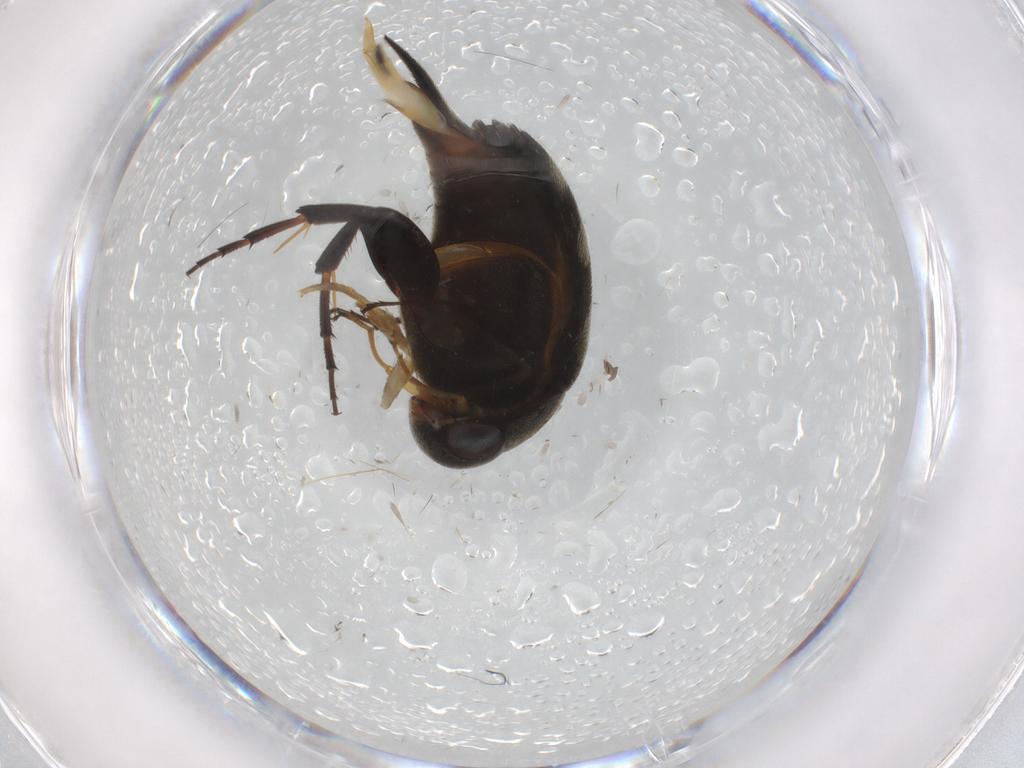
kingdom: Animalia
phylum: Arthropoda
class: Insecta
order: Coleoptera
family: Mordellidae
